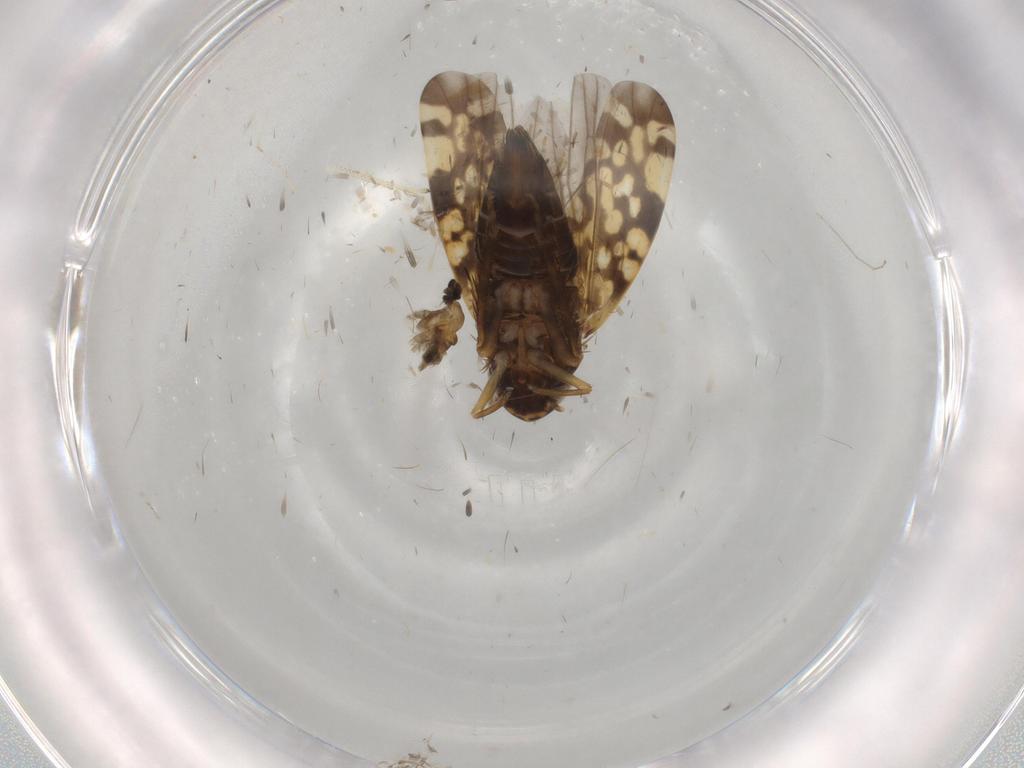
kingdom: Animalia
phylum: Arthropoda
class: Insecta
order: Hemiptera
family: Cicadellidae
